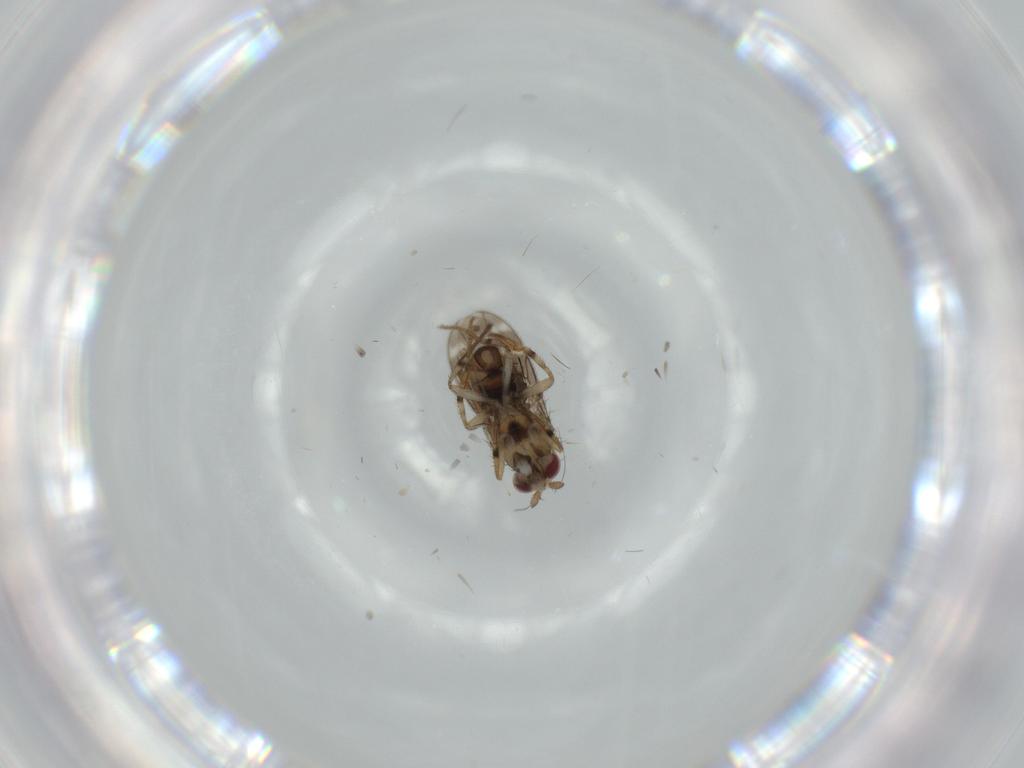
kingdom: Animalia
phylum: Arthropoda
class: Insecta
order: Diptera
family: Sphaeroceridae
